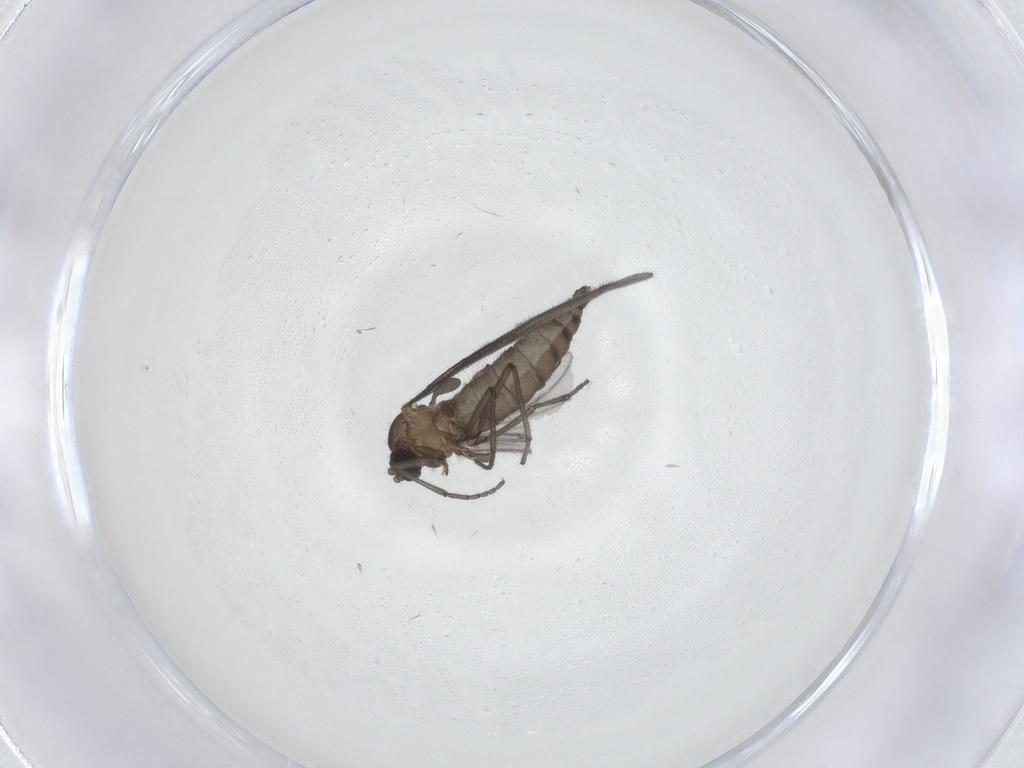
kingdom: Animalia
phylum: Arthropoda
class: Insecta
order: Diptera
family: Sciaridae
